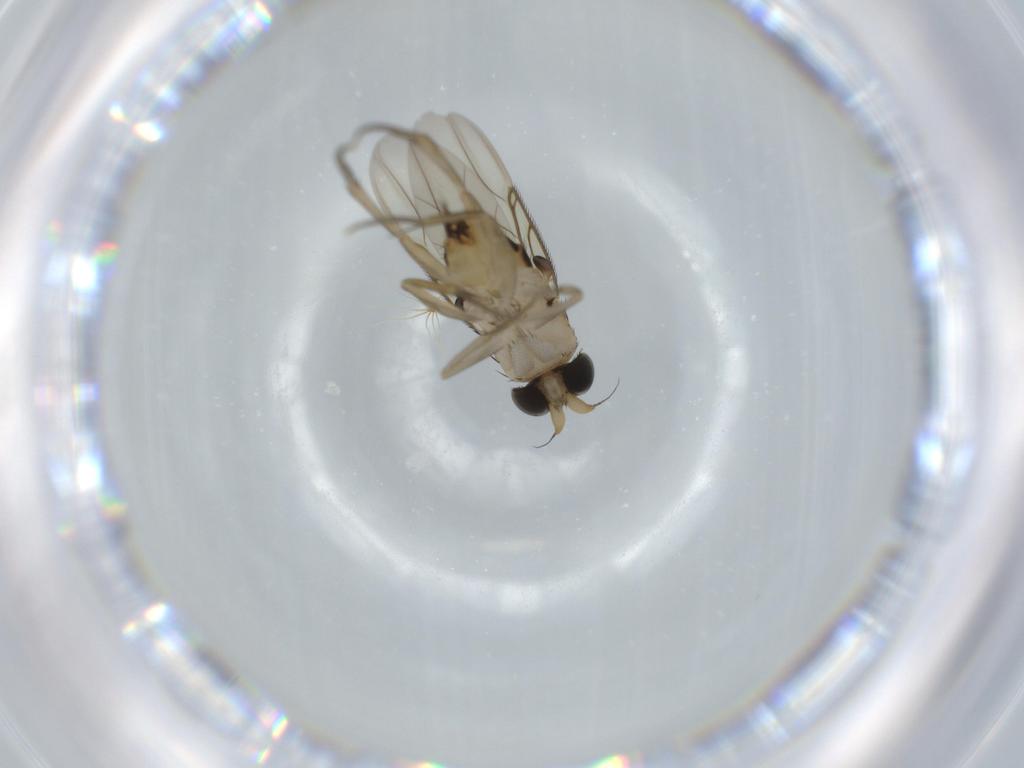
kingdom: Animalia
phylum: Arthropoda
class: Insecta
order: Diptera
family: Phoridae
